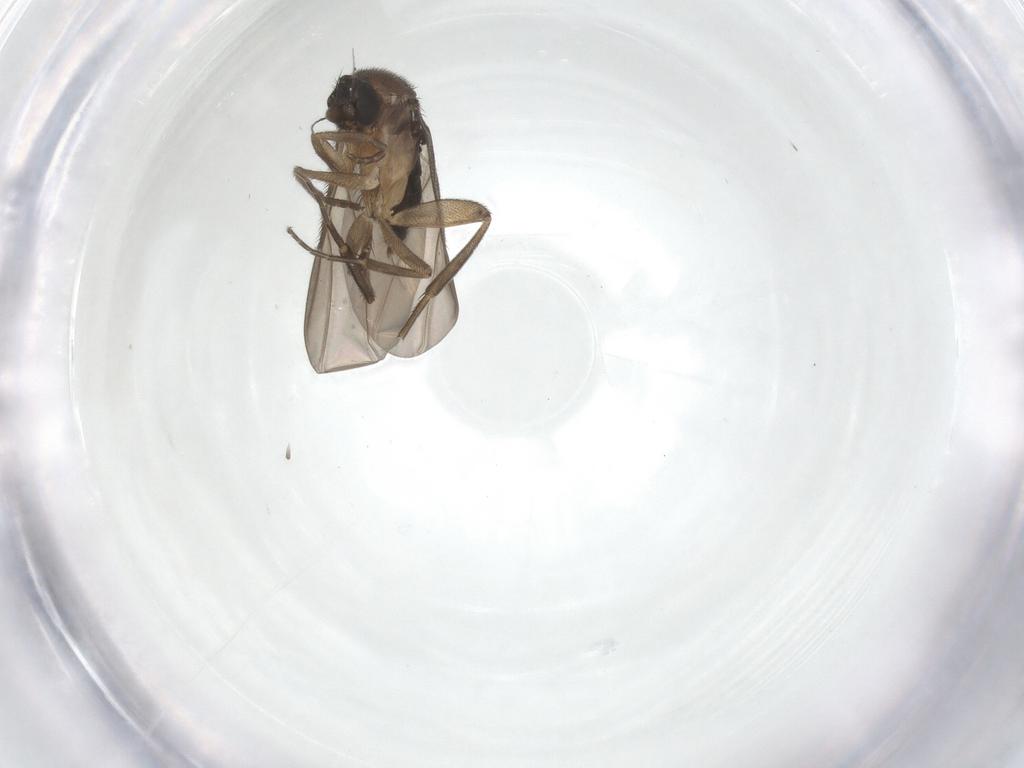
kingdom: Animalia
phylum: Arthropoda
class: Insecta
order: Diptera
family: Phoridae
